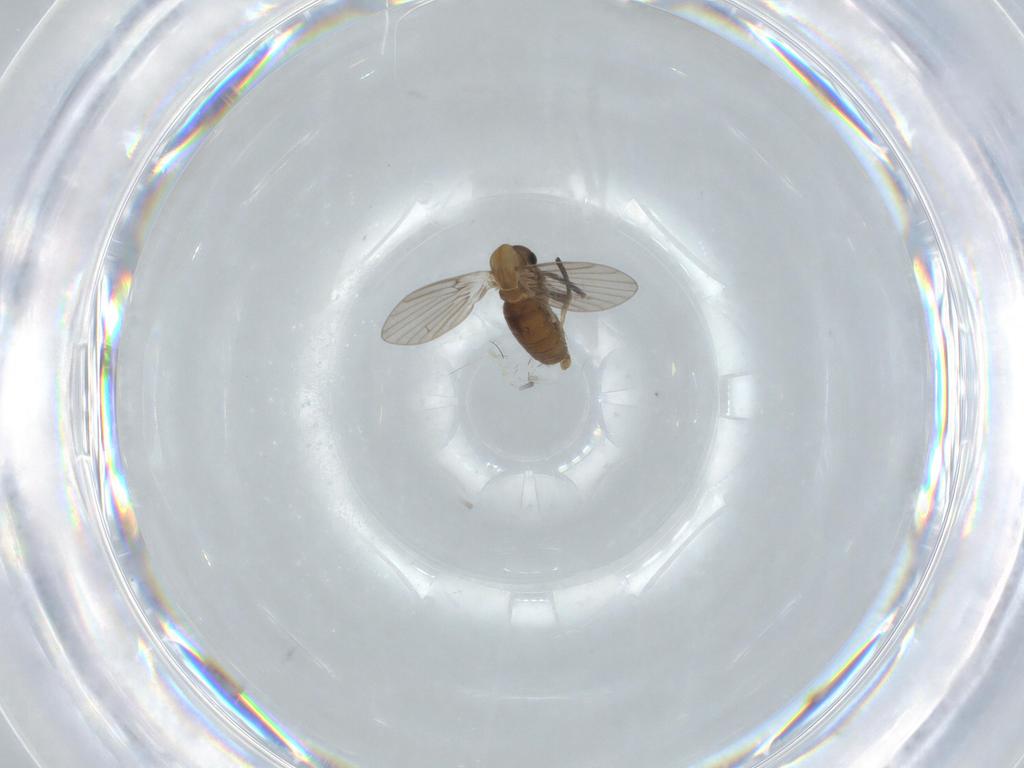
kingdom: Animalia
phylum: Arthropoda
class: Insecta
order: Diptera
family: Psychodidae
